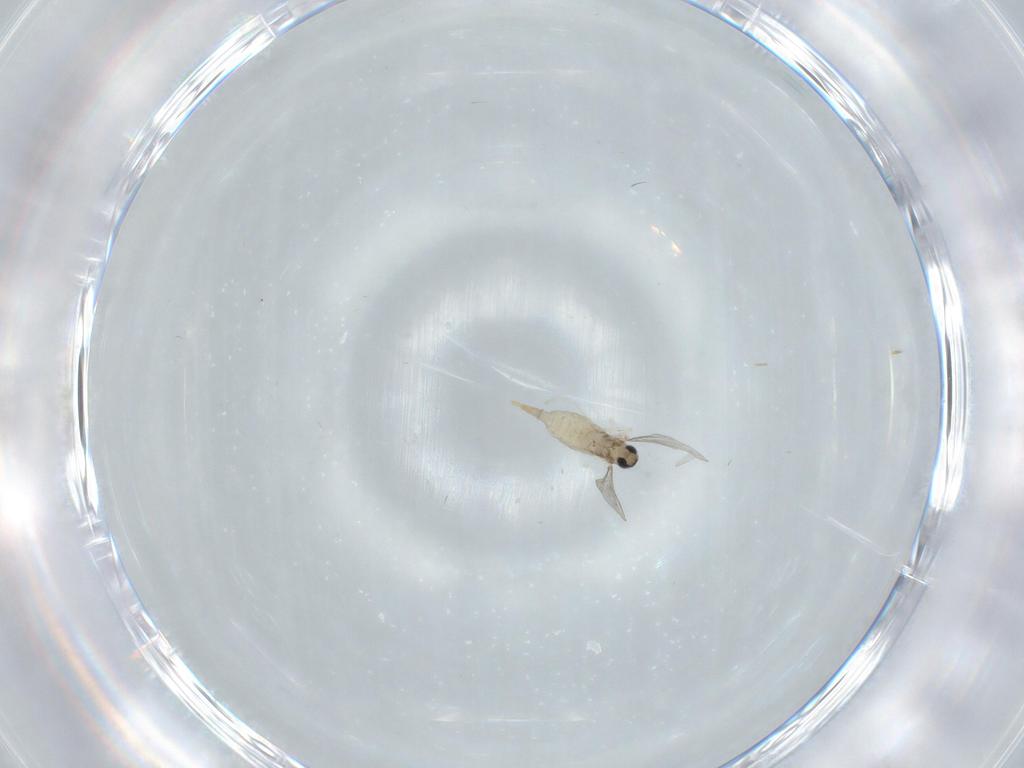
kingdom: Animalia
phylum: Arthropoda
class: Insecta
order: Diptera
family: Chironomidae
